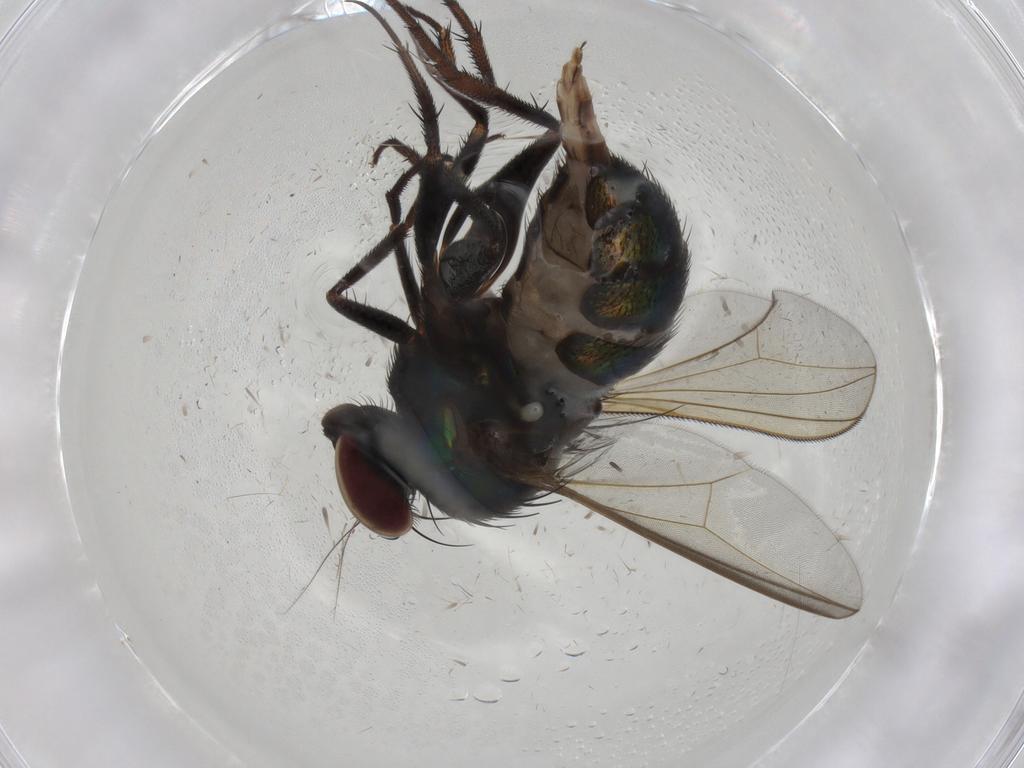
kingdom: Animalia
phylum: Arthropoda
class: Insecta
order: Diptera
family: Dolichopodidae
